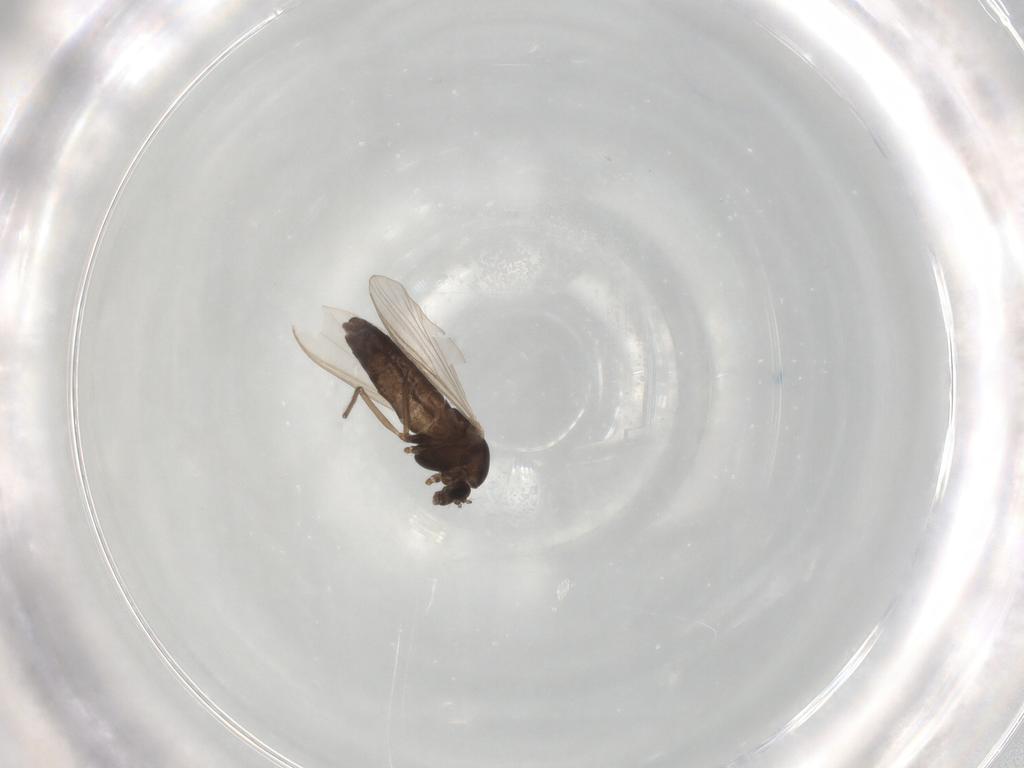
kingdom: Animalia
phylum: Arthropoda
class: Insecta
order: Diptera
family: Chironomidae
